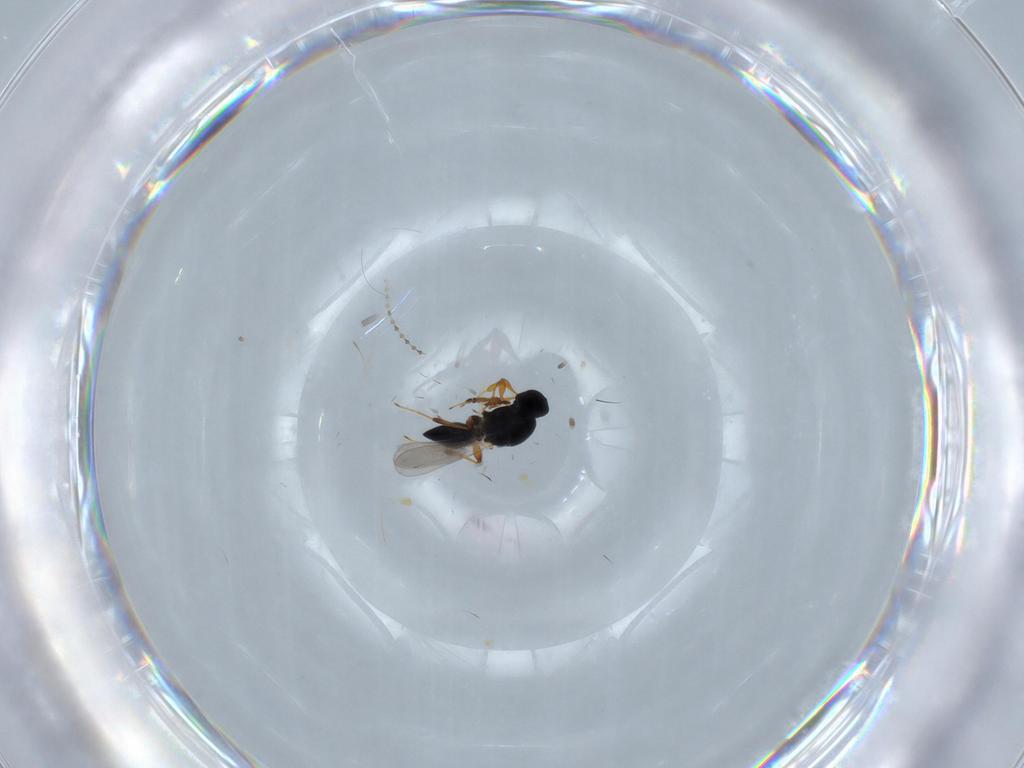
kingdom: Animalia
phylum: Arthropoda
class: Insecta
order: Hymenoptera
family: Platygastridae
